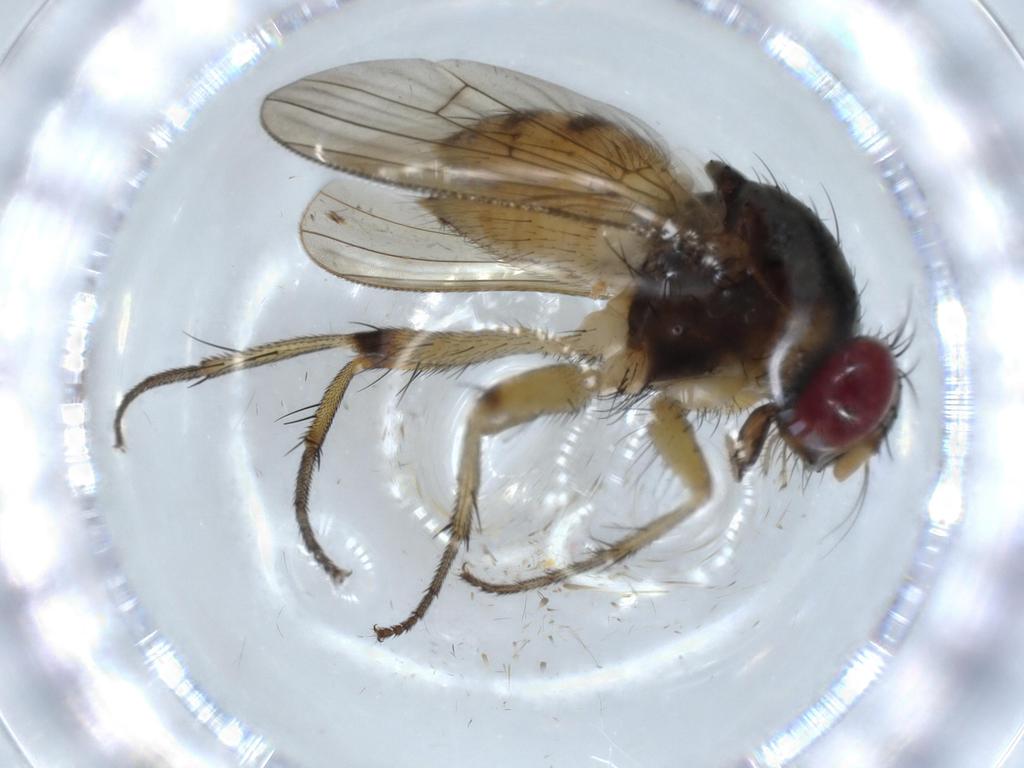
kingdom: Animalia
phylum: Arthropoda
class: Insecta
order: Diptera
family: Muscidae
